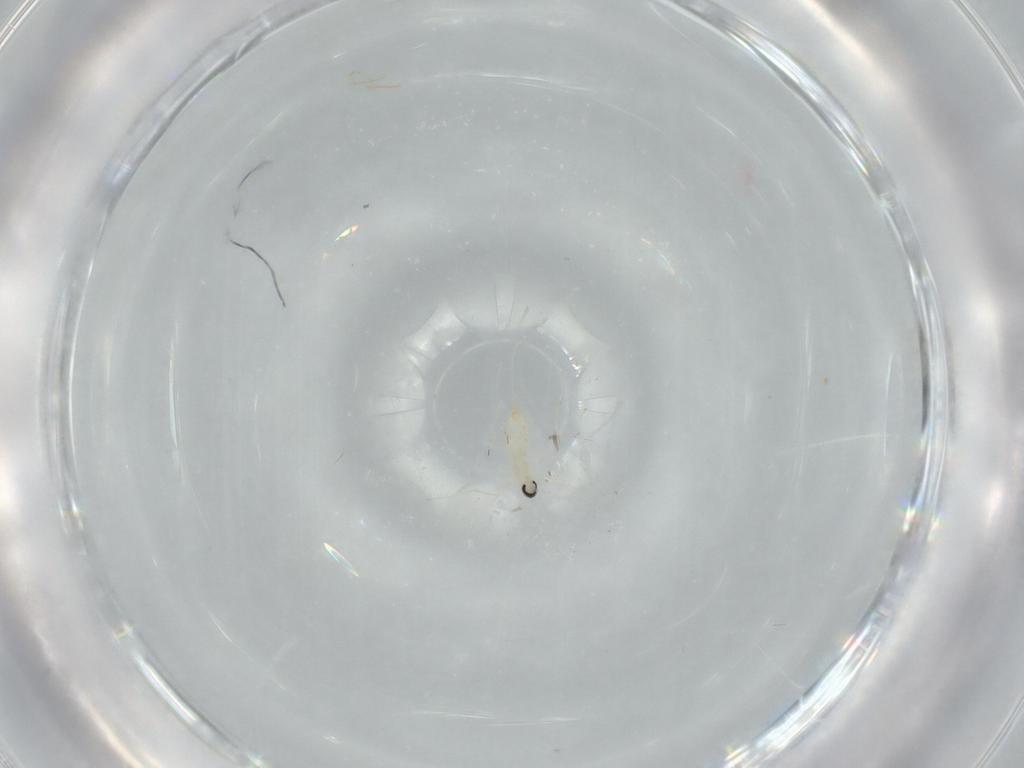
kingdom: Animalia
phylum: Arthropoda
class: Insecta
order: Diptera
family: Cecidomyiidae
